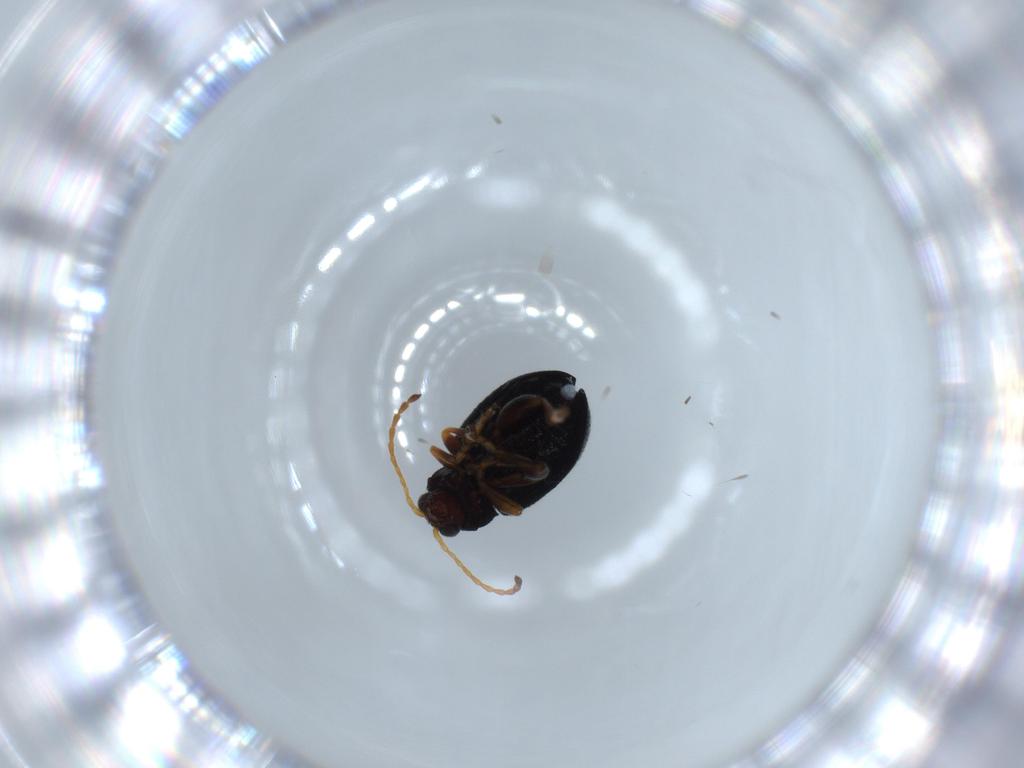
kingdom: Animalia
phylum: Arthropoda
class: Insecta
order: Coleoptera
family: Chrysomelidae
